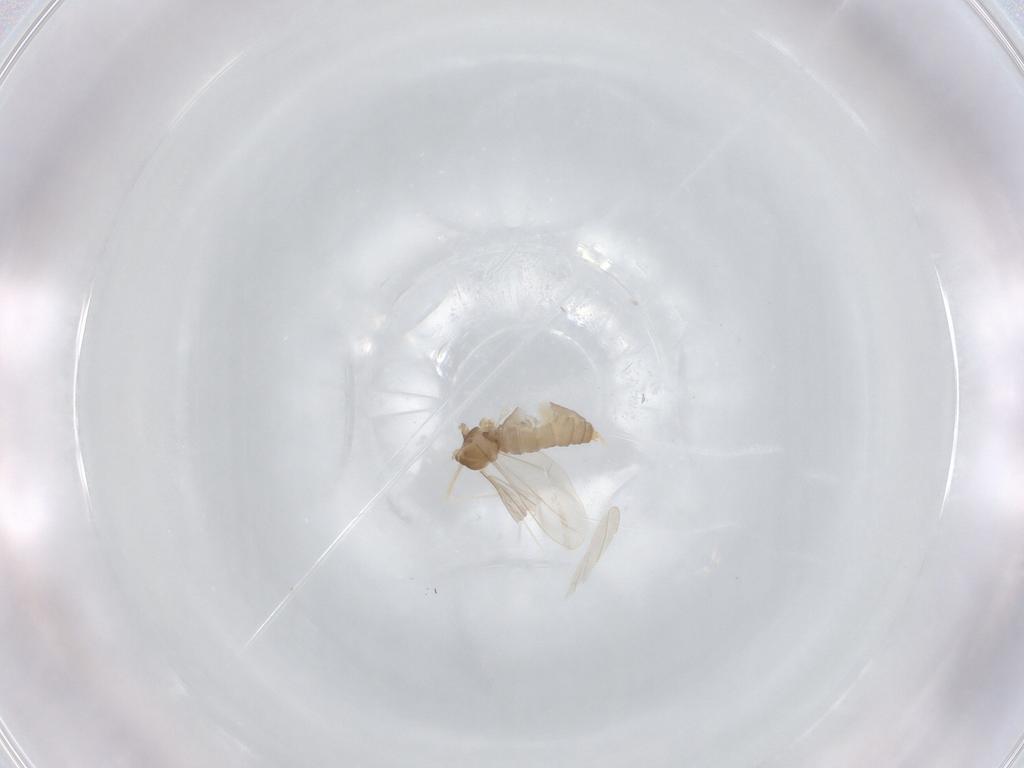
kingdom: Animalia
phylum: Arthropoda
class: Insecta
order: Diptera
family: Cecidomyiidae
